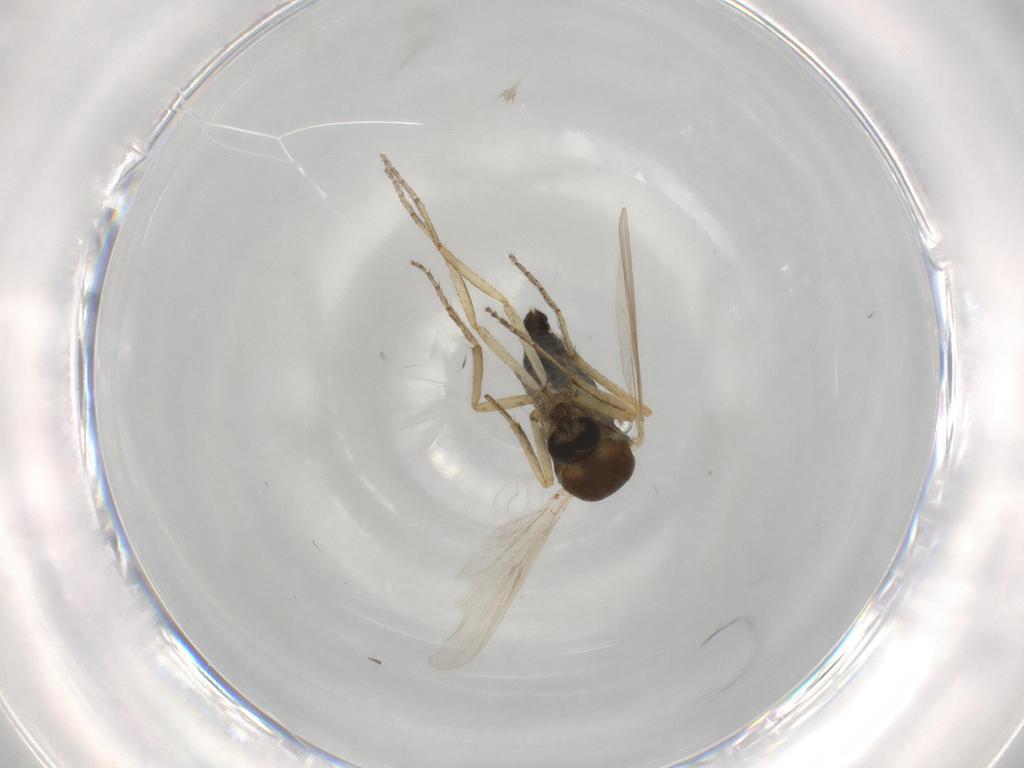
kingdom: Animalia
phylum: Arthropoda
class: Insecta
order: Diptera
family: Ceratopogonidae
